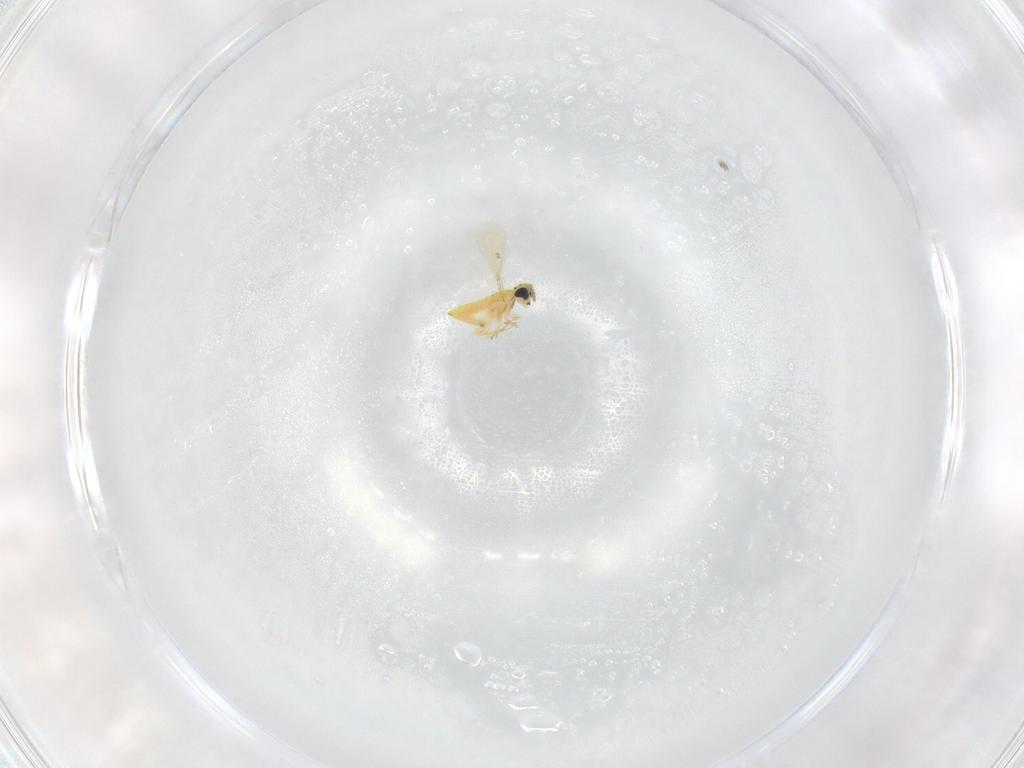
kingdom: Animalia
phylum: Arthropoda
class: Insecta
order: Hymenoptera
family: Trichogrammatidae
